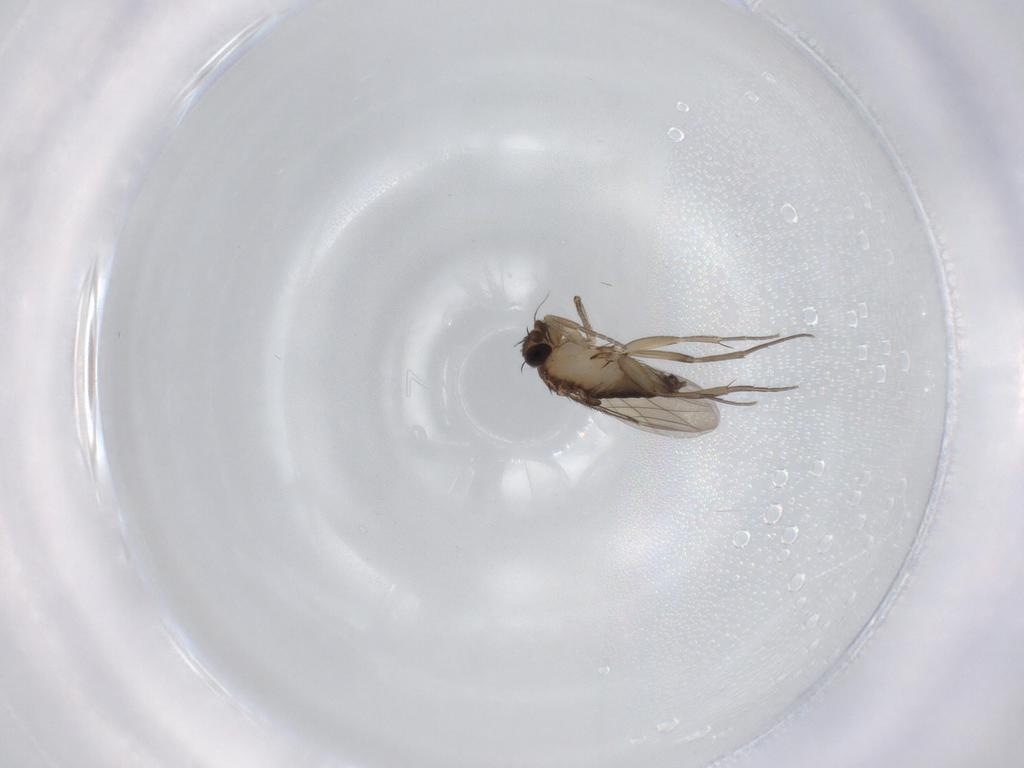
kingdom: Animalia
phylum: Arthropoda
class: Insecta
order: Diptera
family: Phoridae
